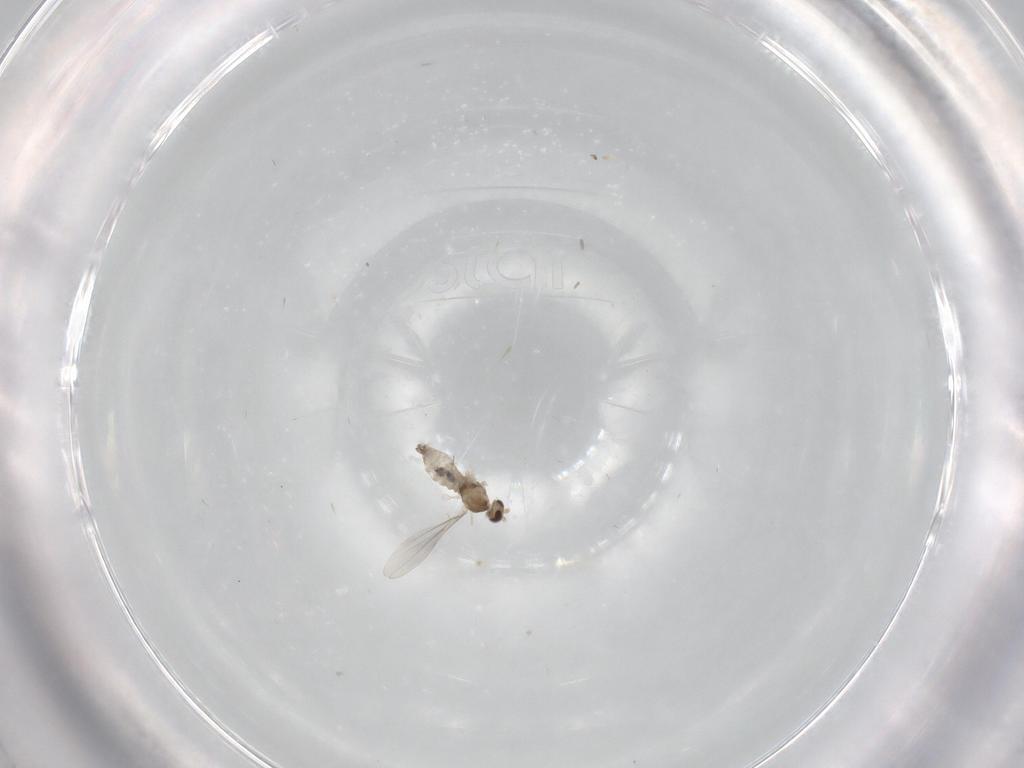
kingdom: Animalia
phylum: Arthropoda
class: Insecta
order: Diptera
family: Cecidomyiidae
